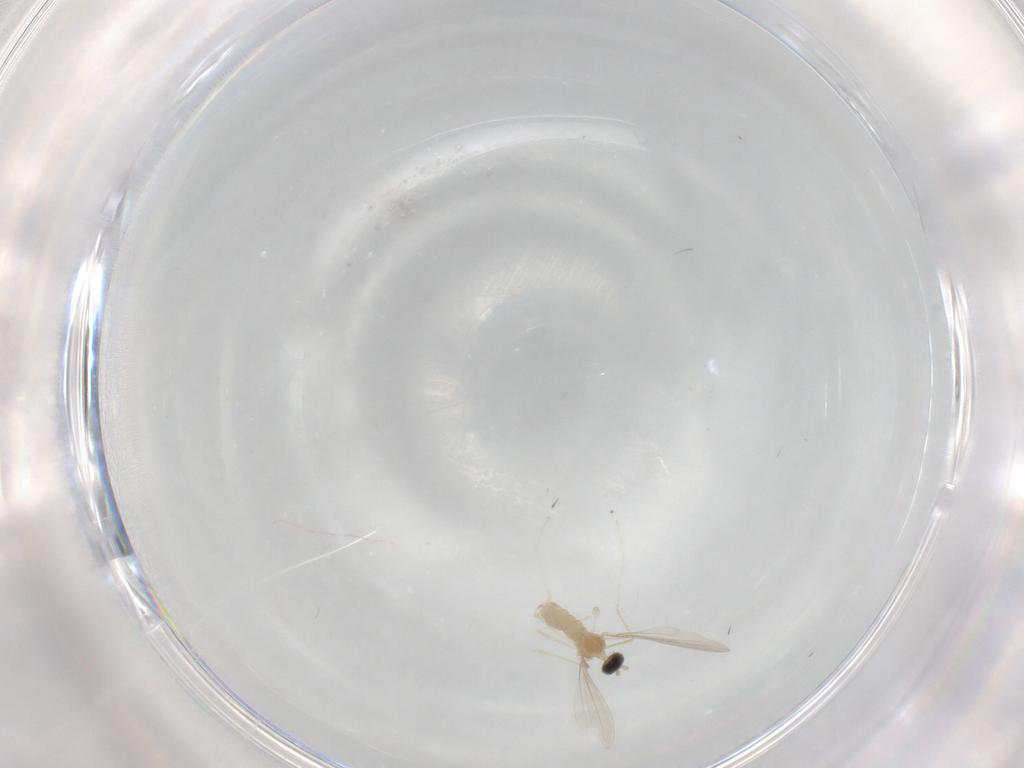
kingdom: Animalia
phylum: Arthropoda
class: Insecta
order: Diptera
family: Cecidomyiidae
